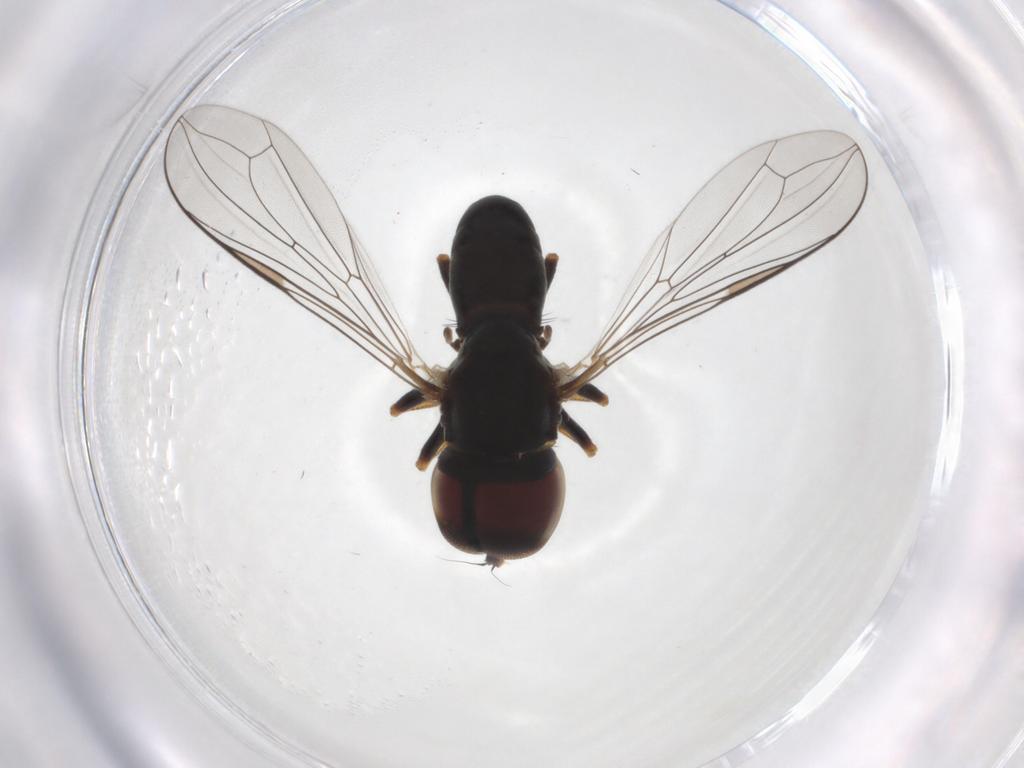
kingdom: Animalia
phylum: Arthropoda
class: Insecta
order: Diptera
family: Pipunculidae
